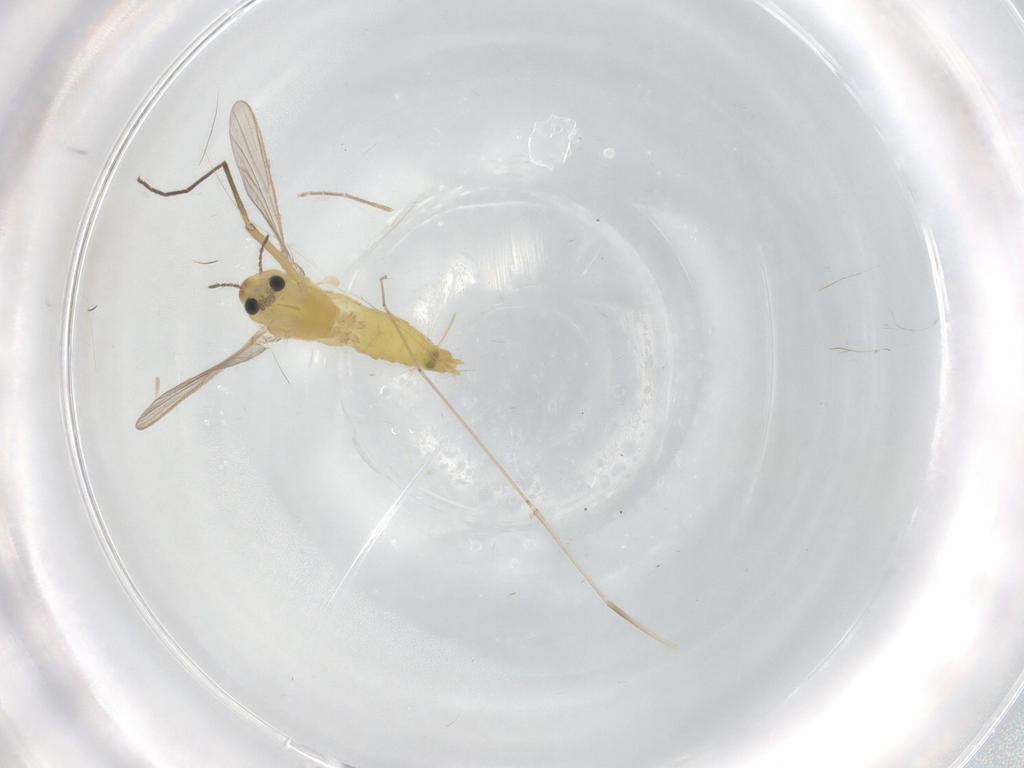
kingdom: Animalia
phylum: Arthropoda
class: Insecta
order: Diptera
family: Chironomidae
